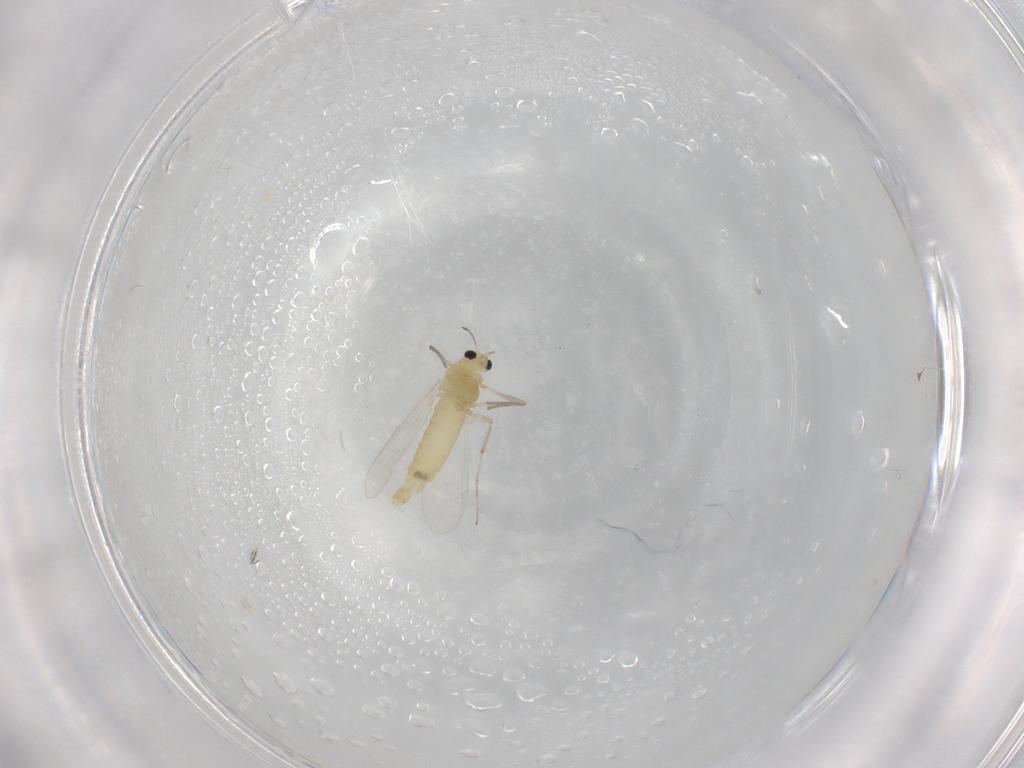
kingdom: Animalia
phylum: Arthropoda
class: Insecta
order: Diptera
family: Chironomidae
